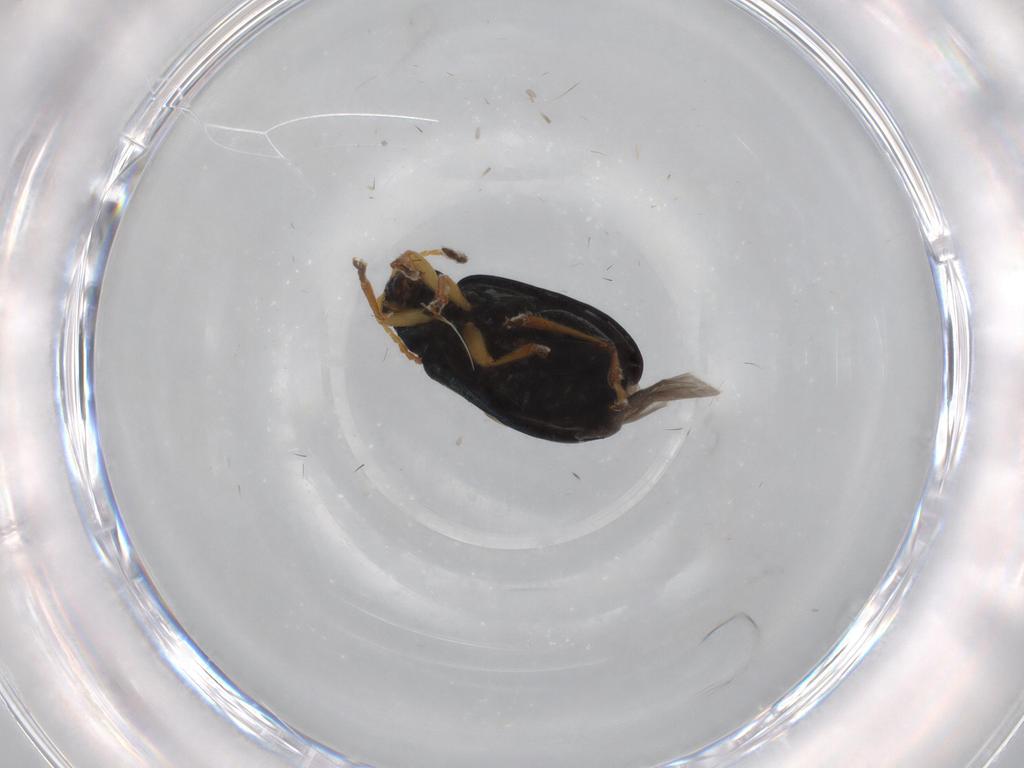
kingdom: Animalia
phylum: Arthropoda
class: Insecta
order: Coleoptera
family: Chrysomelidae
